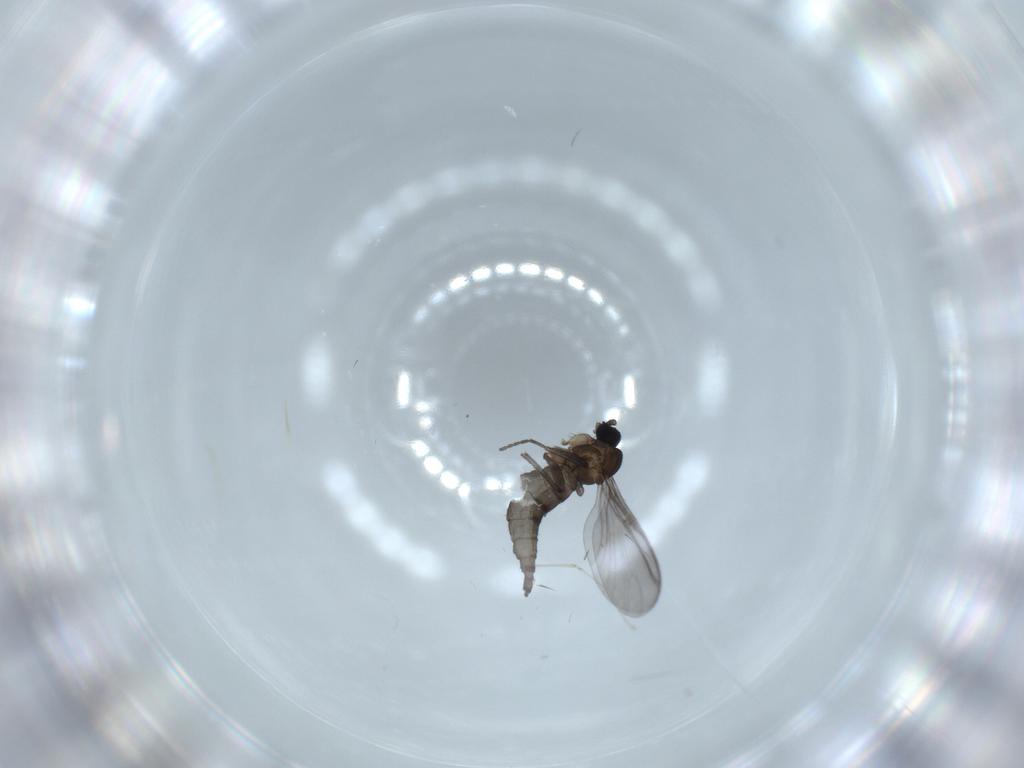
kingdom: Animalia
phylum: Arthropoda
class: Insecta
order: Diptera
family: Cecidomyiidae
